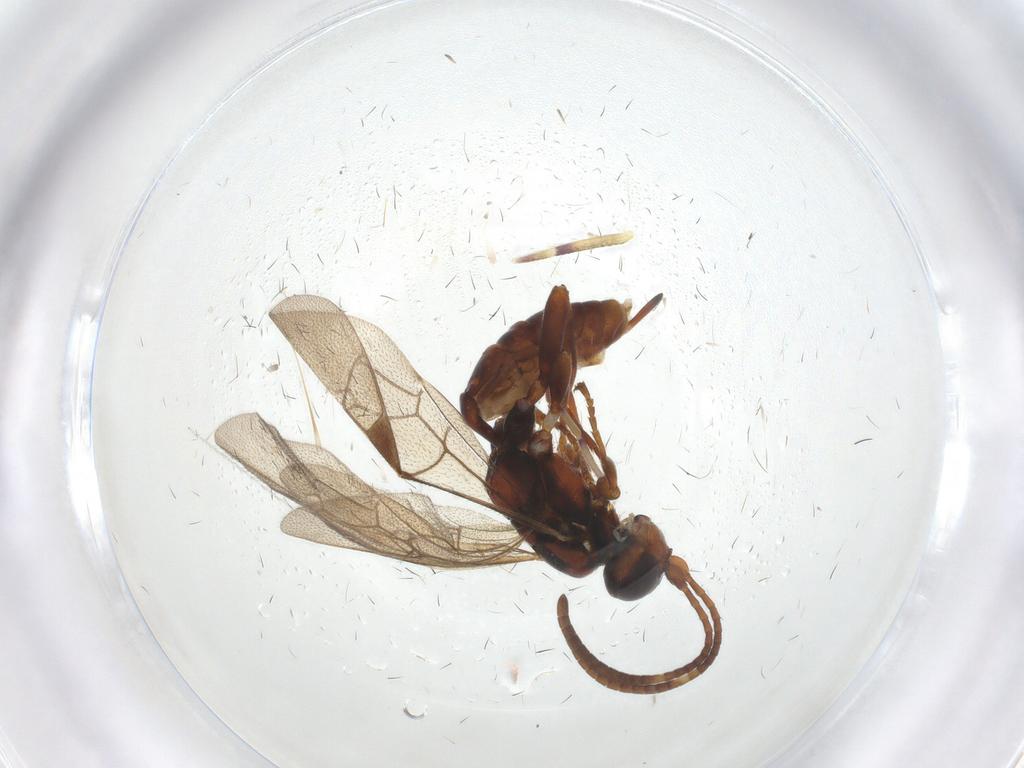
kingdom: Animalia
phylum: Arthropoda
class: Insecta
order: Hymenoptera
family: Ichneumonidae
